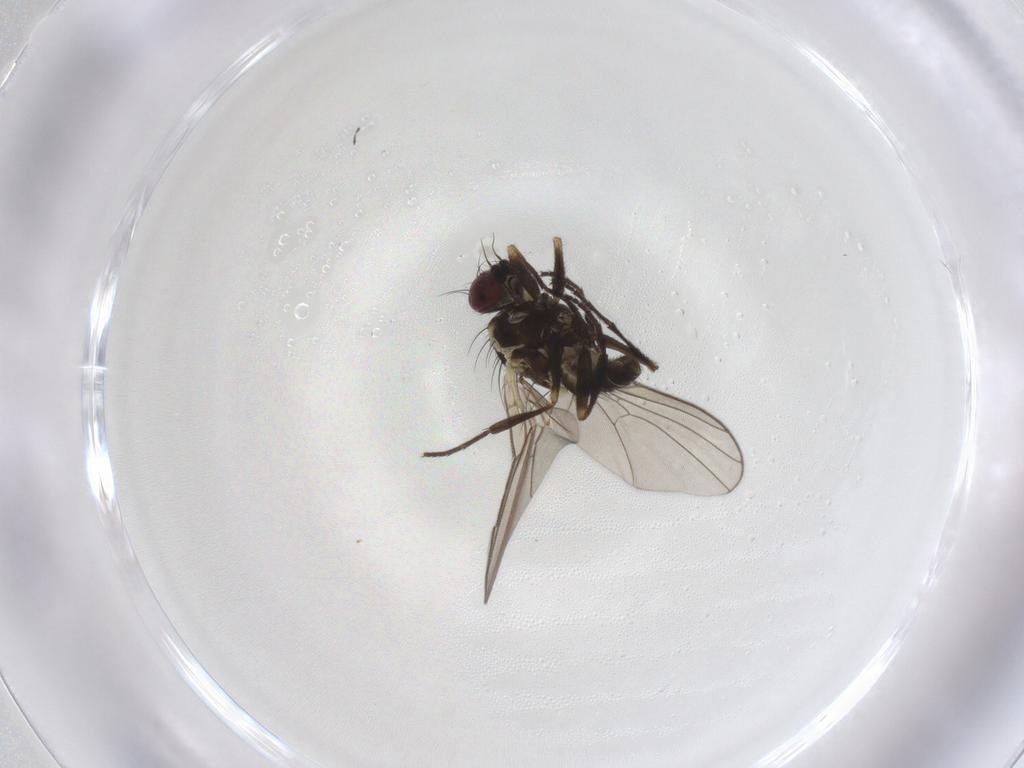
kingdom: Animalia
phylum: Arthropoda
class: Insecta
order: Diptera
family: Agromyzidae
